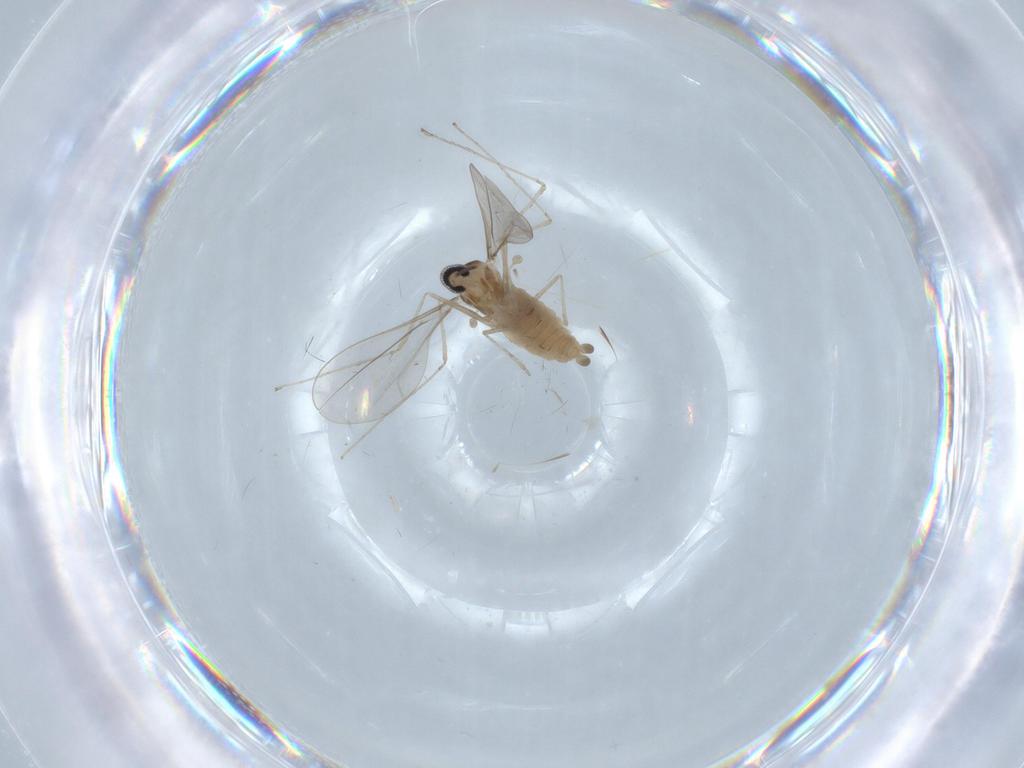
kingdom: Animalia
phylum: Arthropoda
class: Insecta
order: Diptera
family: Cecidomyiidae
